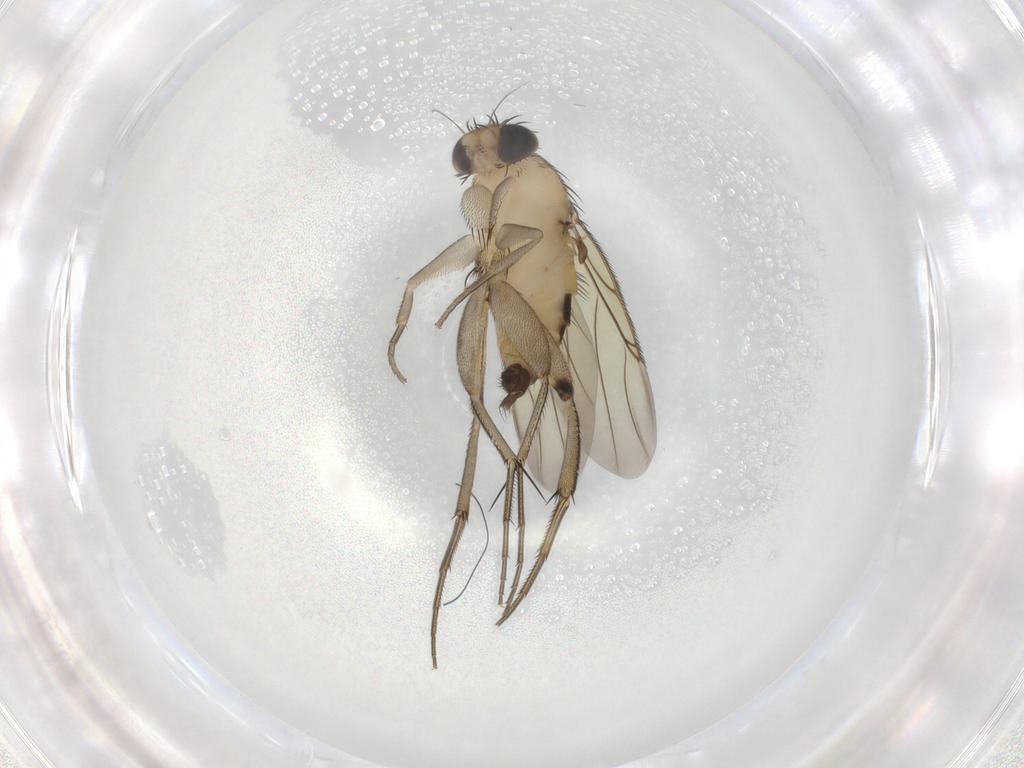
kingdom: Animalia
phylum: Arthropoda
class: Insecta
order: Diptera
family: Phoridae
